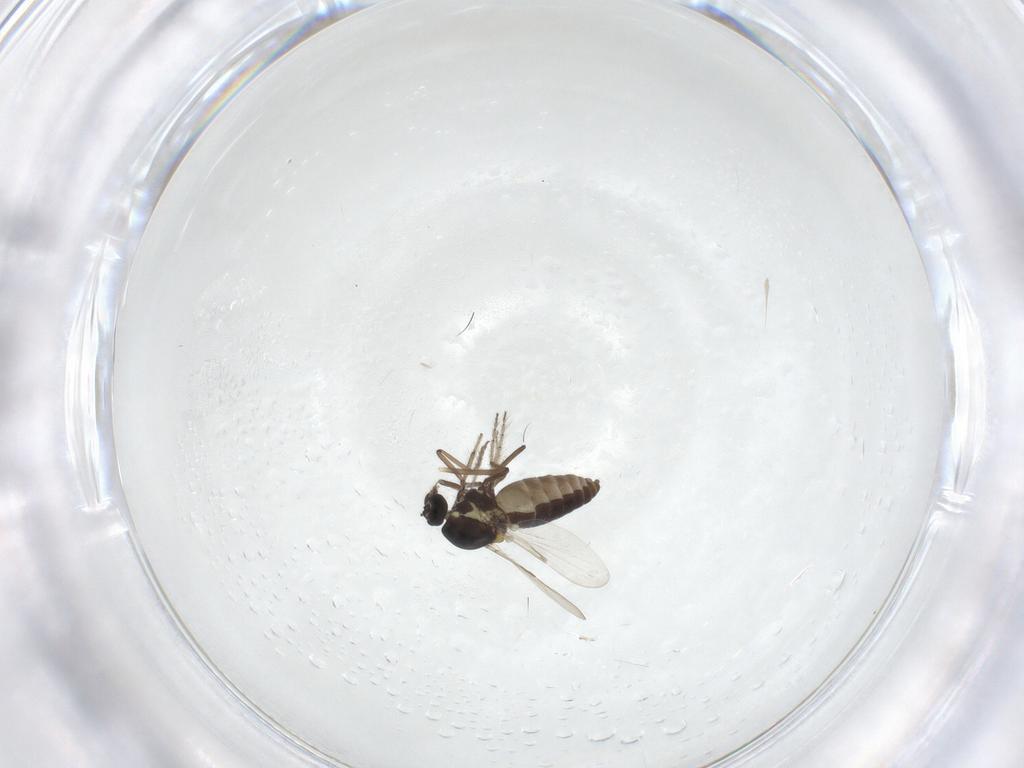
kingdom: Animalia
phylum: Arthropoda
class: Insecta
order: Diptera
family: Ceratopogonidae
